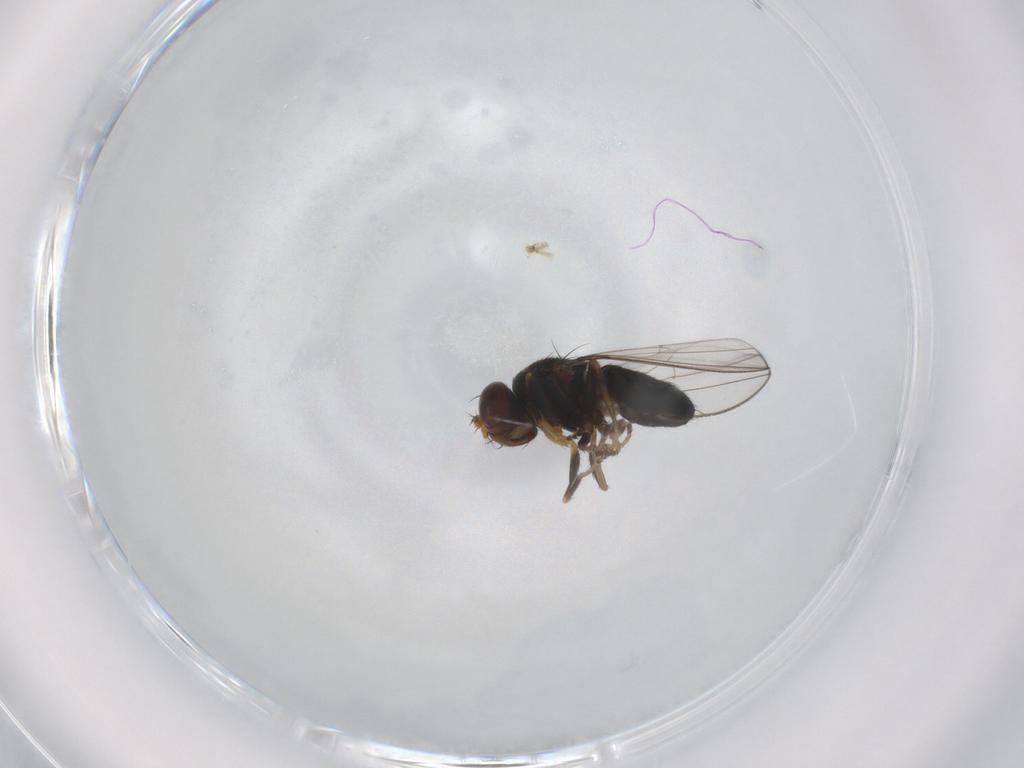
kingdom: Animalia
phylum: Arthropoda
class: Insecta
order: Diptera
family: Ephydridae
